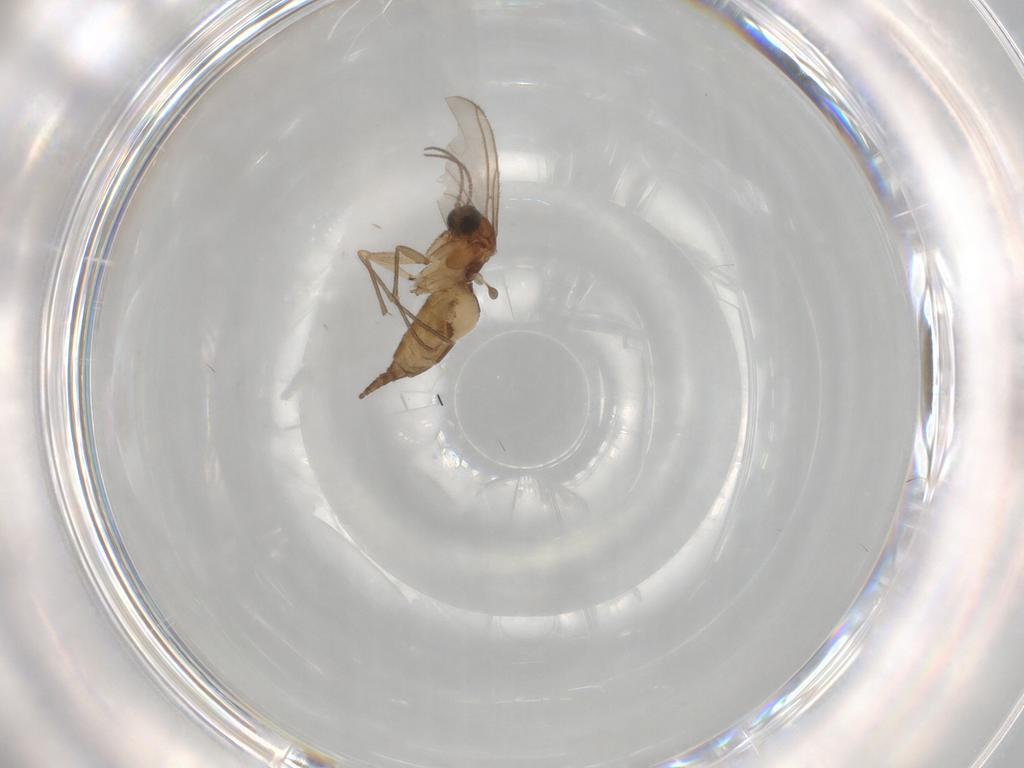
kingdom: Animalia
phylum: Arthropoda
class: Insecta
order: Diptera
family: Sciaridae
